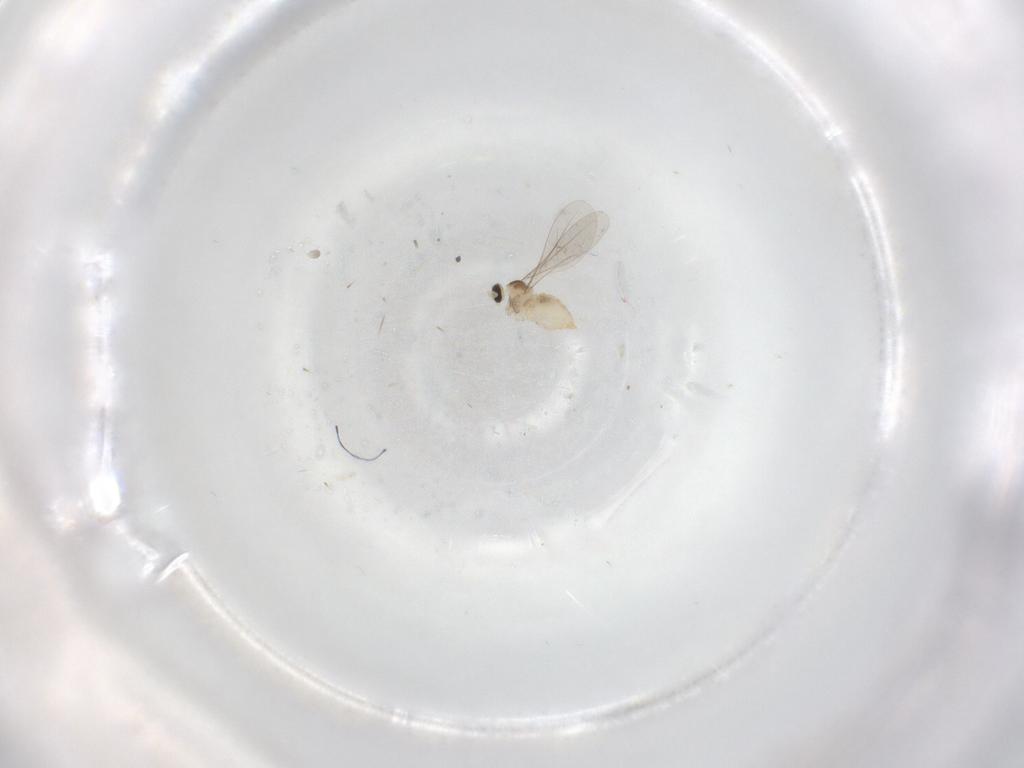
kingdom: Animalia
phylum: Arthropoda
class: Insecta
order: Diptera
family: Cecidomyiidae
